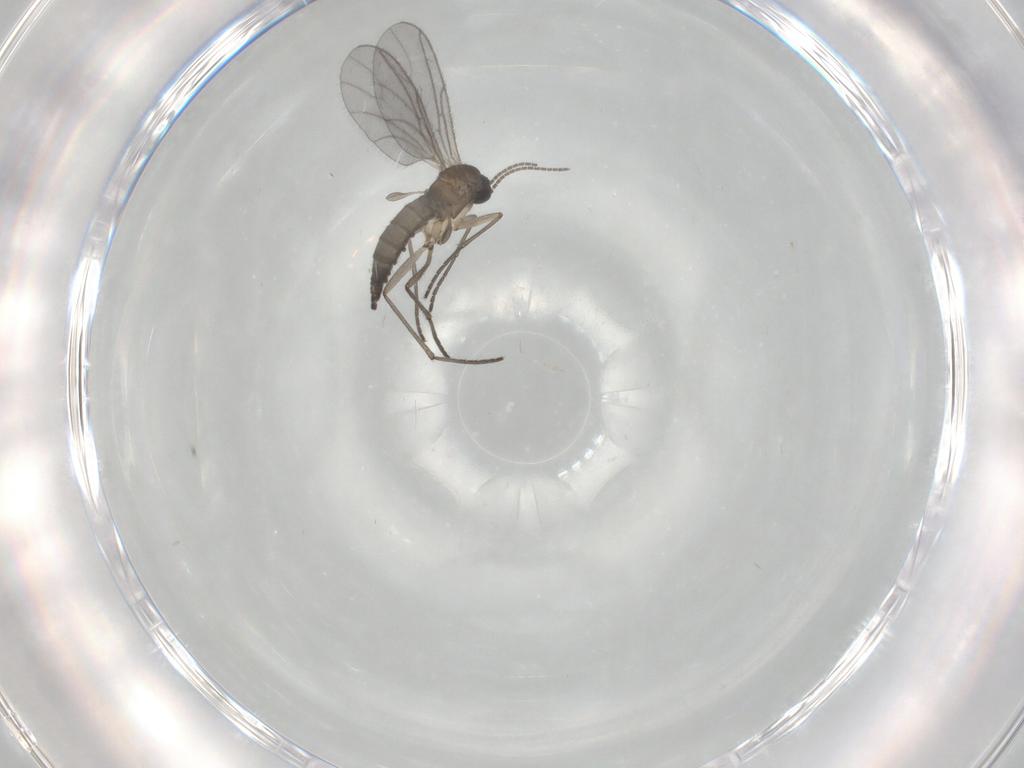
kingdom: Animalia
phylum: Arthropoda
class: Insecta
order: Diptera
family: Sciaridae
